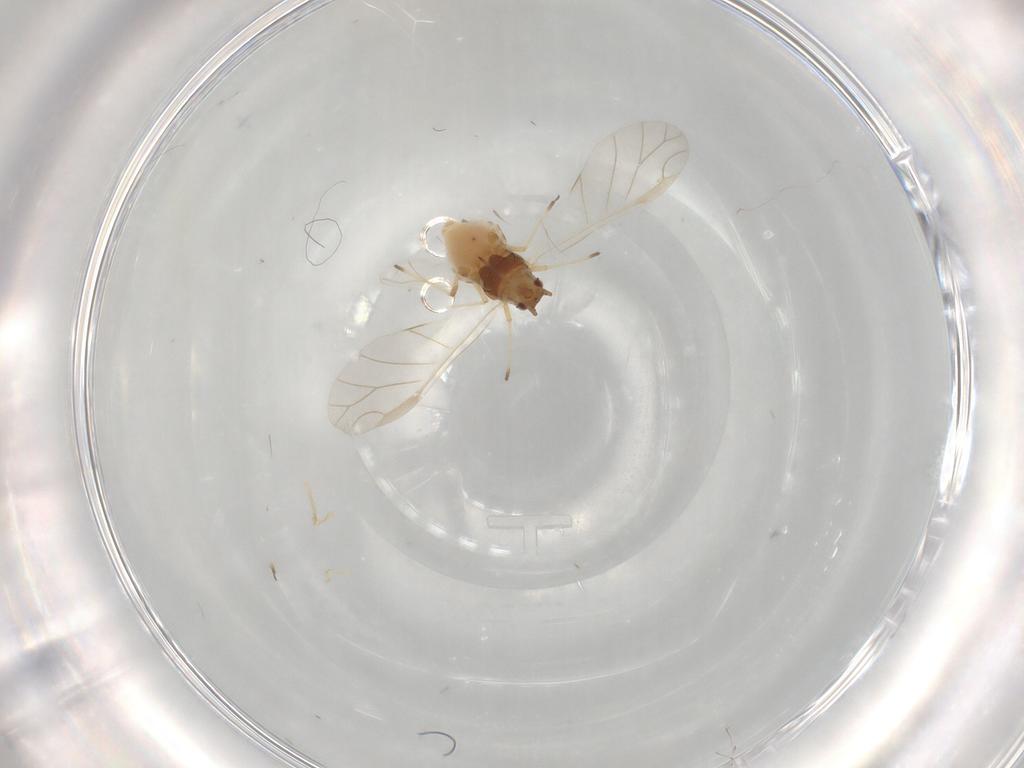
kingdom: Animalia
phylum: Arthropoda
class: Insecta
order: Hemiptera
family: Aphididae
